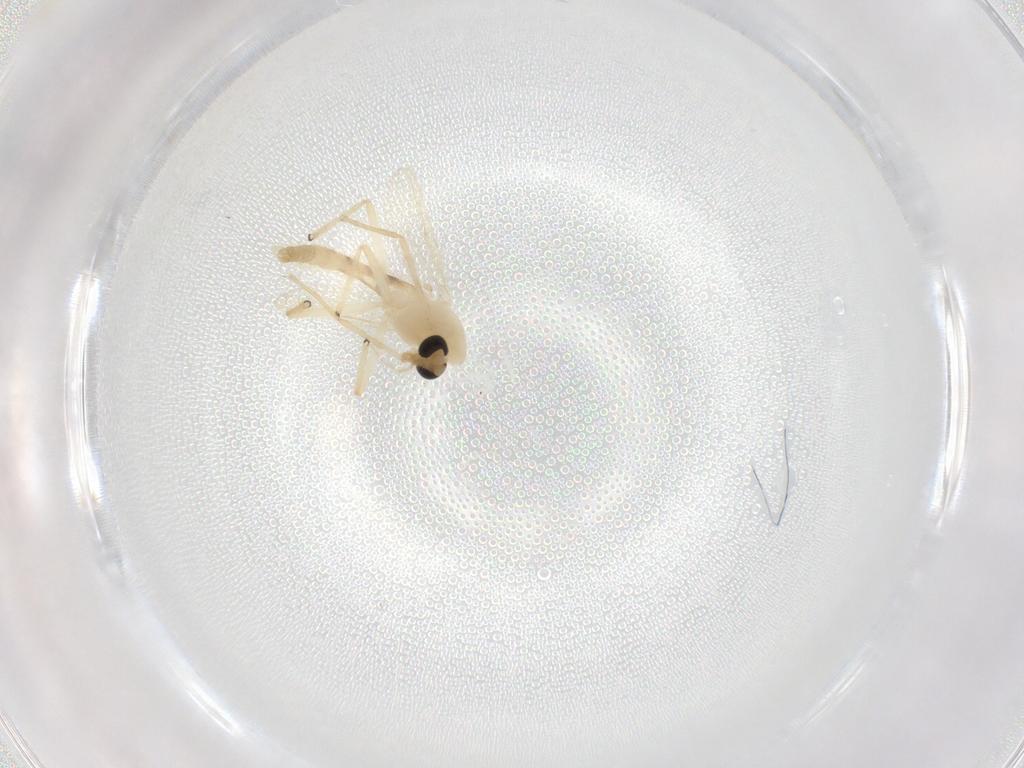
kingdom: Animalia
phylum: Arthropoda
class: Insecta
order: Diptera
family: Chironomidae
